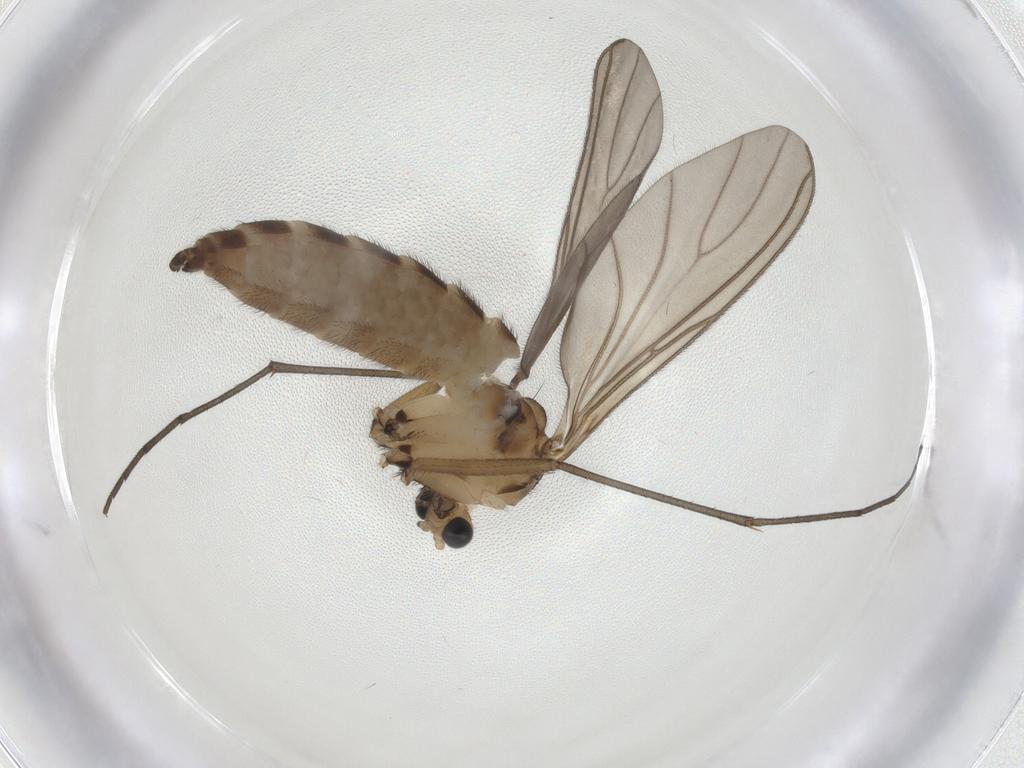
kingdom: Animalia
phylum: Arthropoda
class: Insecta
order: Diptera
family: Sciaridae
